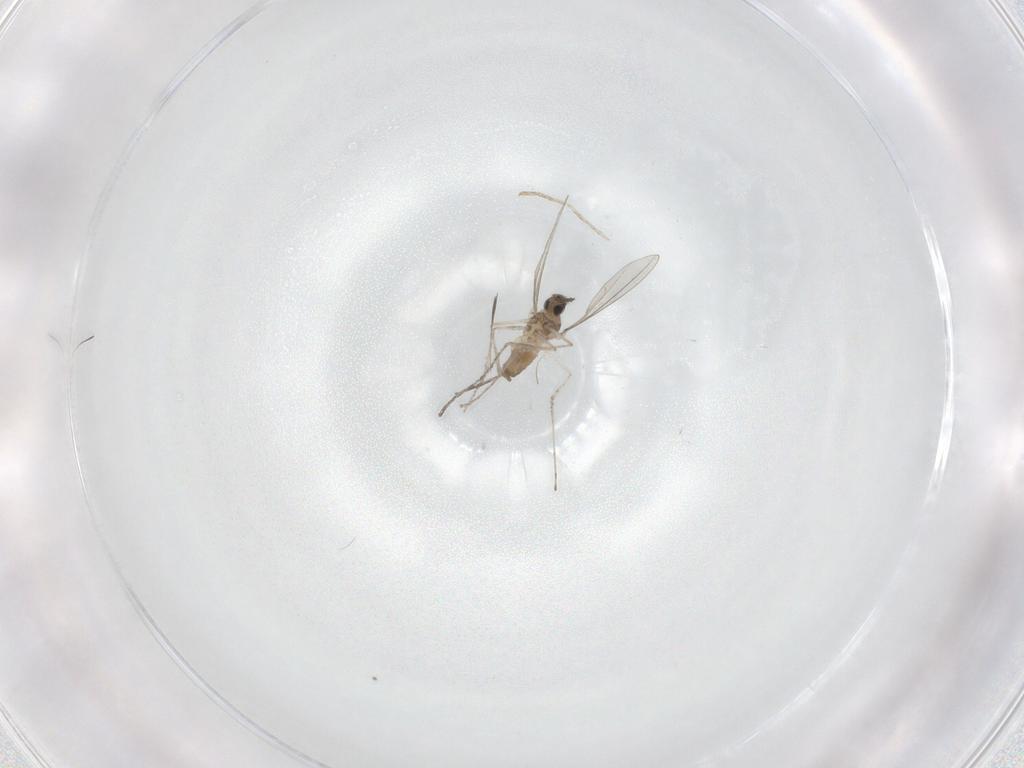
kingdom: Animalia
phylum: Arthropoda
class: Insecta
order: Diptera
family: Cecidomyiidae
